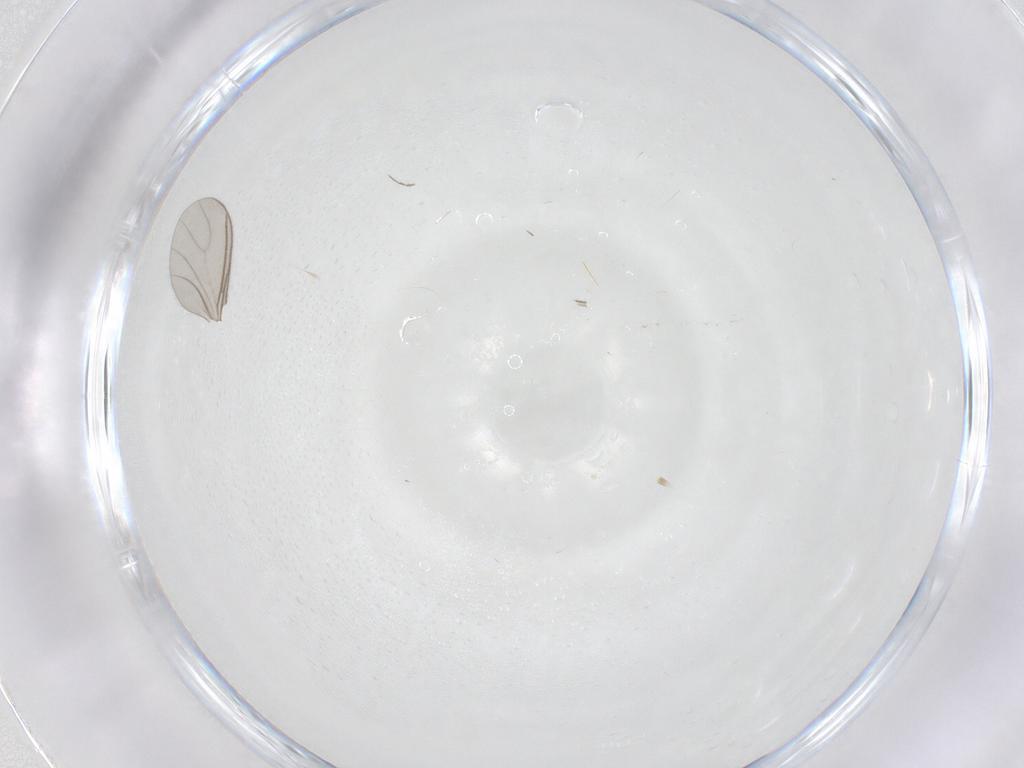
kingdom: Animalia
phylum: Arthropoda
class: Insecta
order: Diptera
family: Chironomidae
